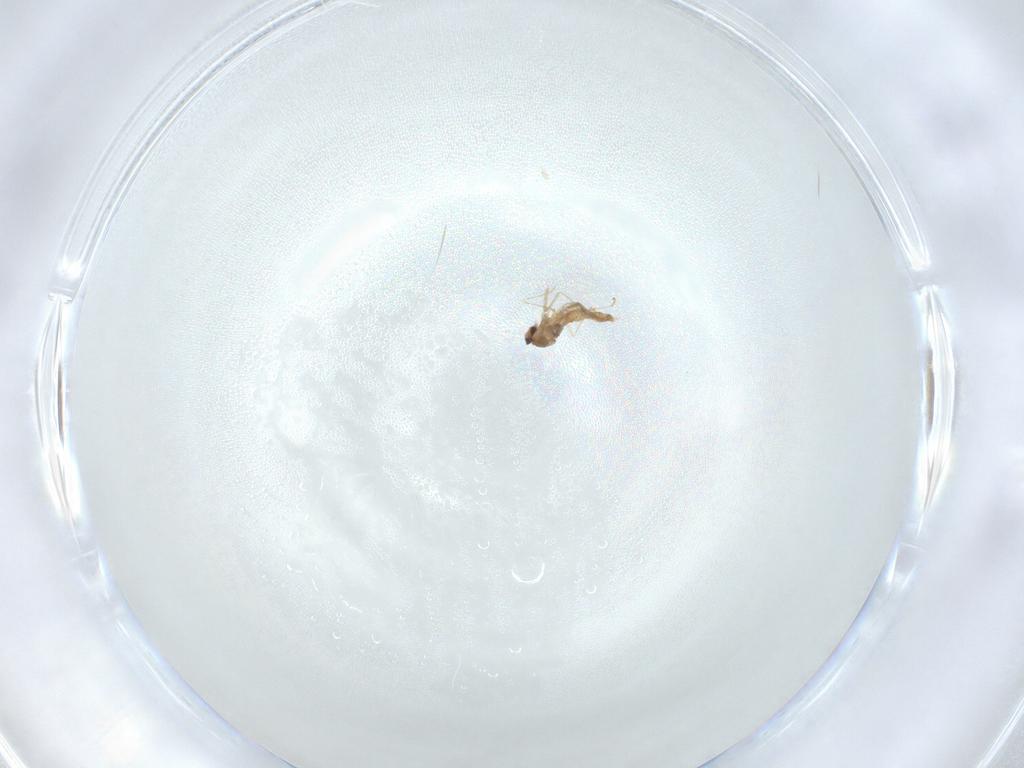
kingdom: Animalia
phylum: Arthropoda
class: Insecta
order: Diptera
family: Cecidomyiidae
